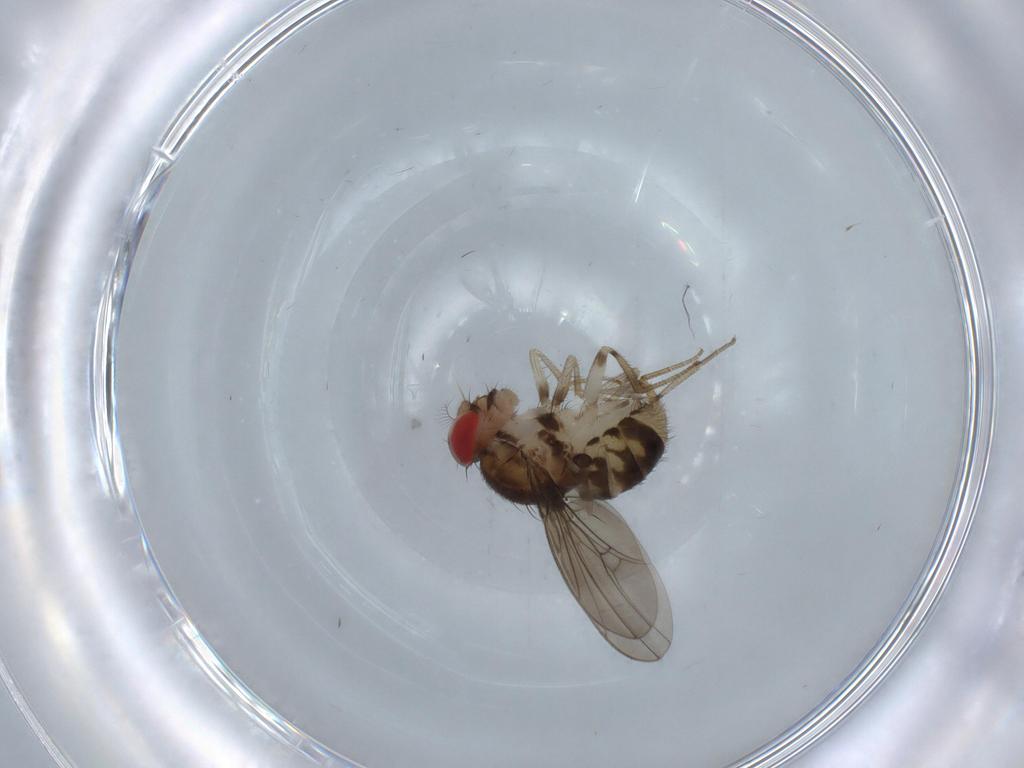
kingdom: Animalia
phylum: Arthropoda
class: Insecta
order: Diptera
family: Drosophilidae
